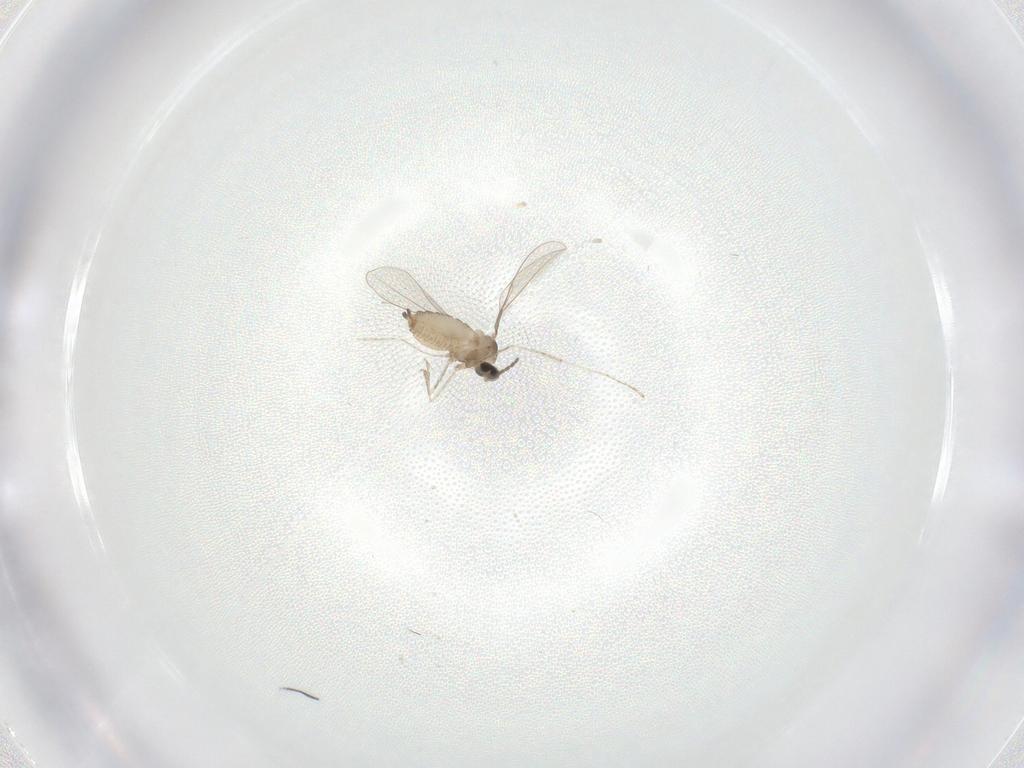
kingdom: Animalia
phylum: Arthropoda
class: Insecta
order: Diptera
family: Cecidomyiidae
